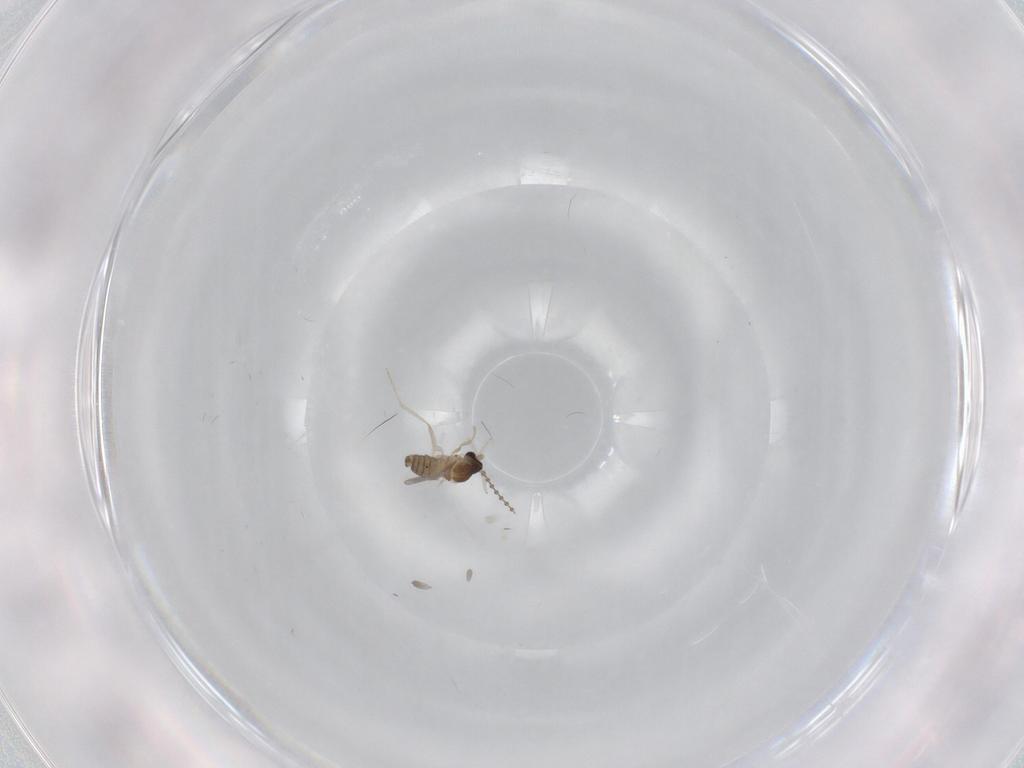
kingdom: Animalia
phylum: Arthropoda
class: Insecta
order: Diptera
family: Cecidomyiidae
